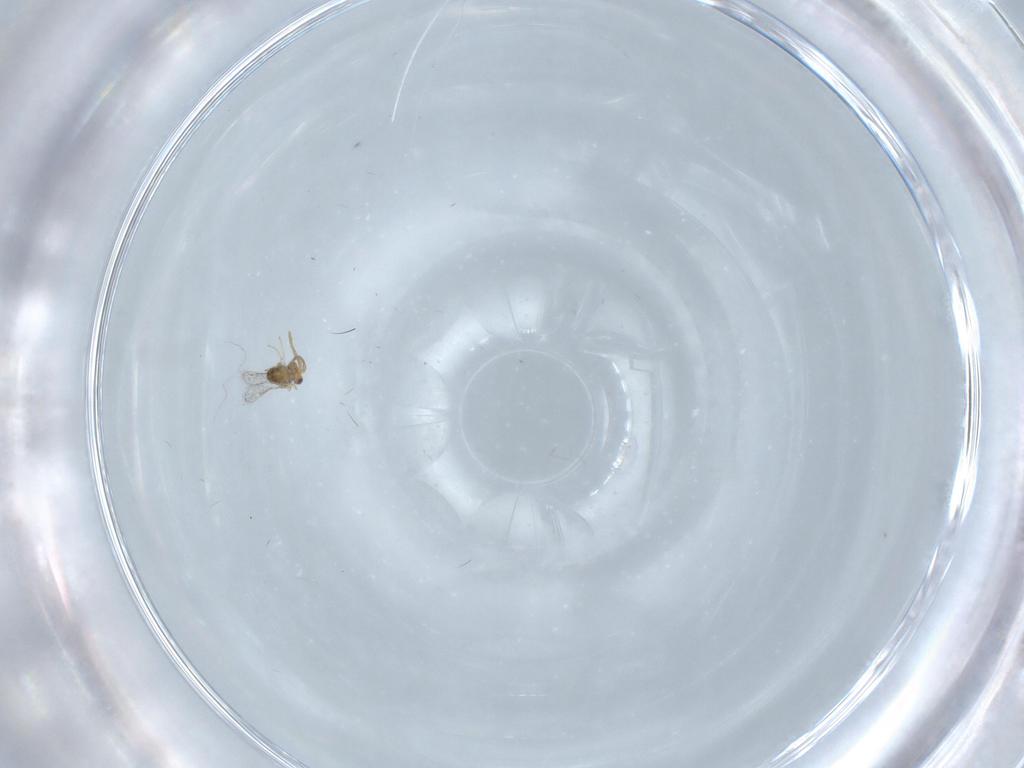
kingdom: Animalia
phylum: Arthropoda
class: Insecta
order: Hymenoptera
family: Aphelinidae
